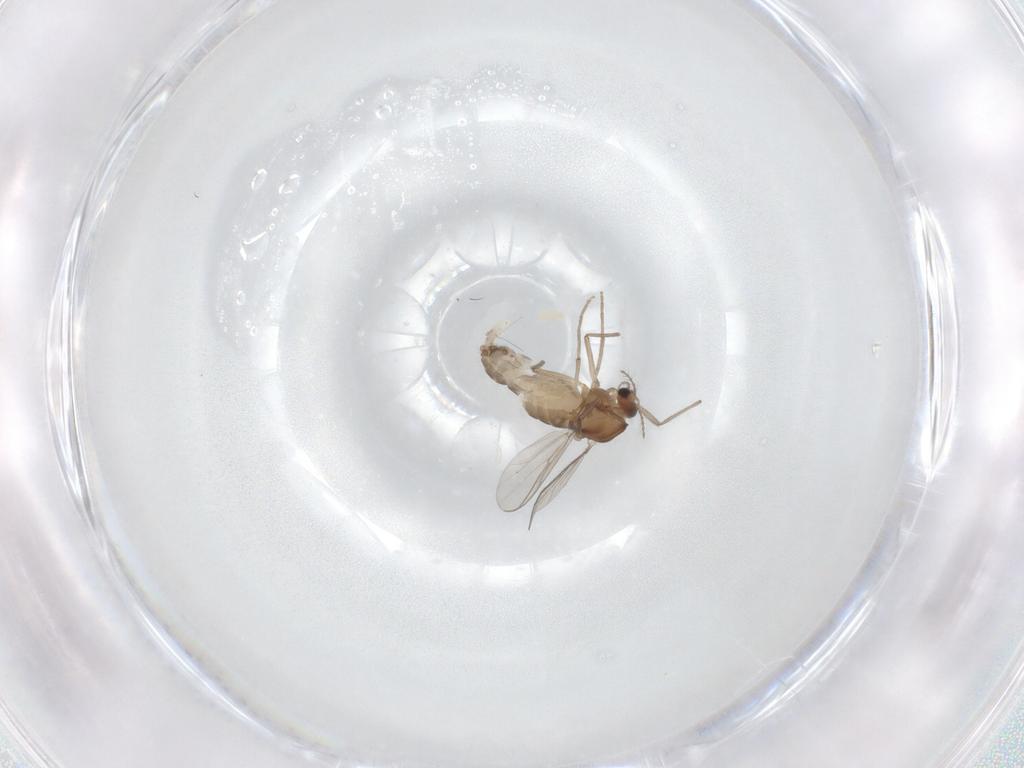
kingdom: Animalia
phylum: Arthropoda
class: Insecta
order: Diptera
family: Chironomidae
